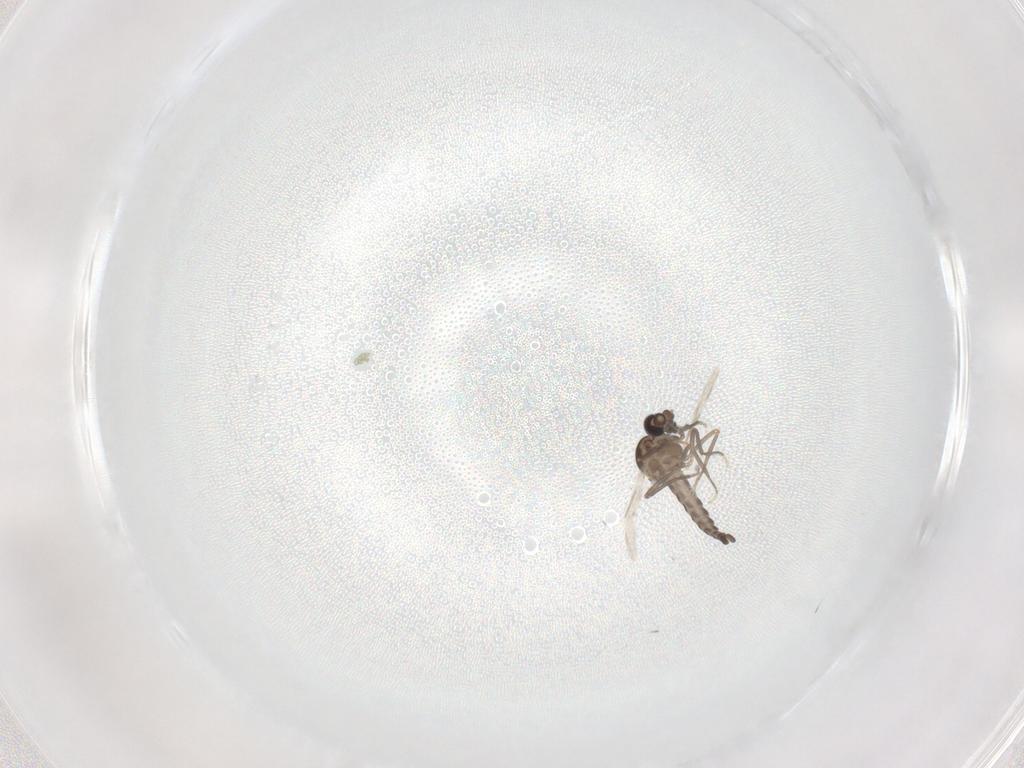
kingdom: Animalia
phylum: Arthropoda
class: Insecta
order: Diptera
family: Ceratopogonidae
